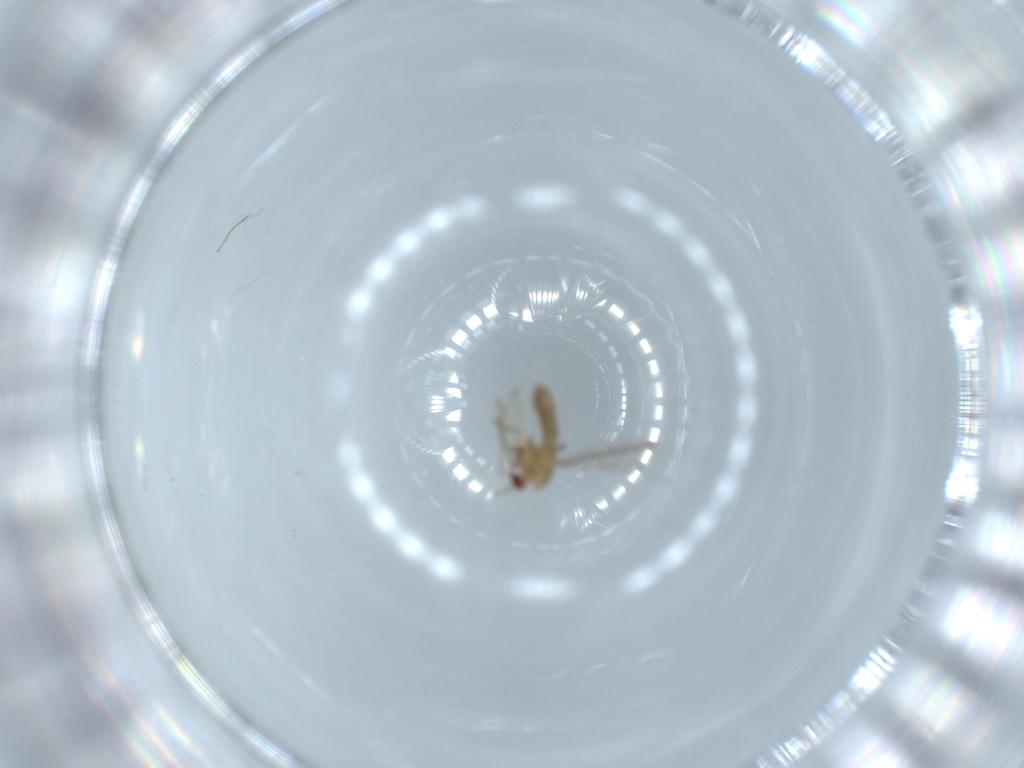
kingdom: Animalia
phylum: Arthropoda
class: Insecta
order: Diptera
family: Chironomidae
